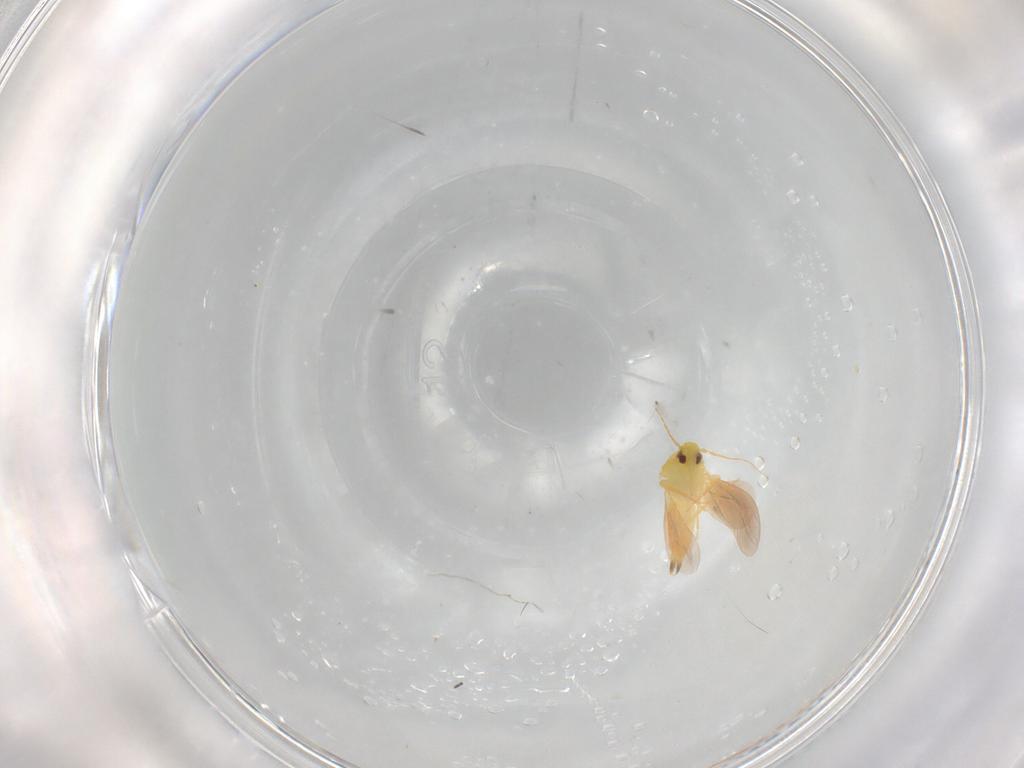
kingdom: Animalia
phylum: Arthropoda
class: Insecta
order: Hemiptera
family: Aleyrodidae
